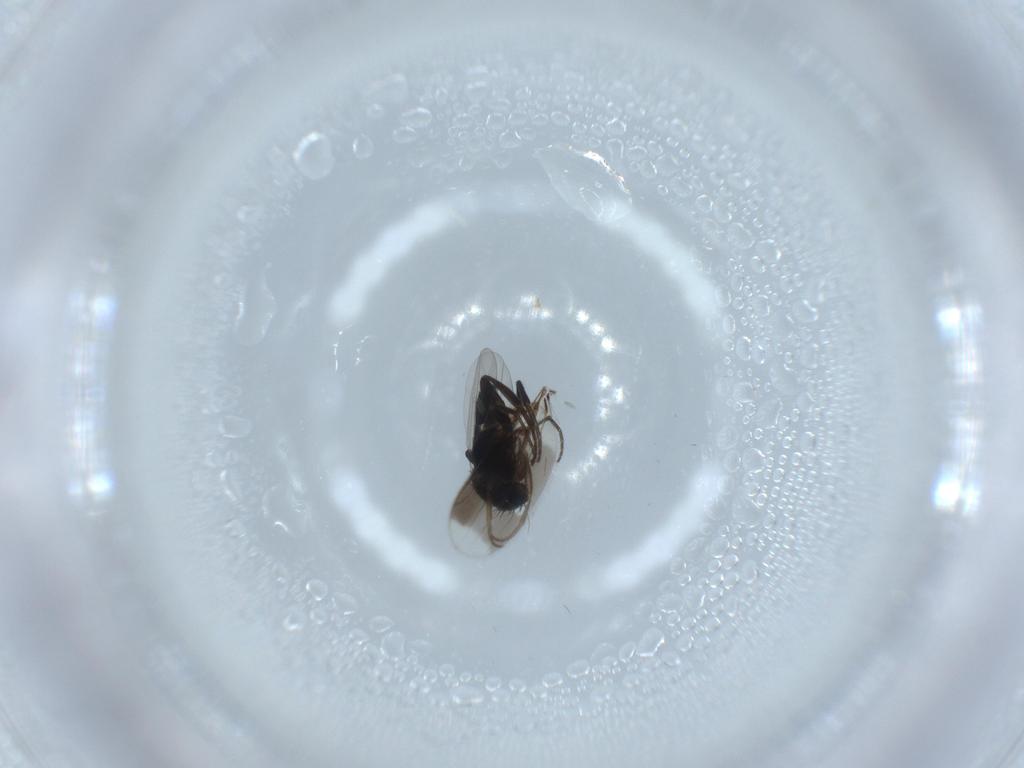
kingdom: Animalia
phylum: Arthropoda
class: Insecta
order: Diptera
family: Phoridae
